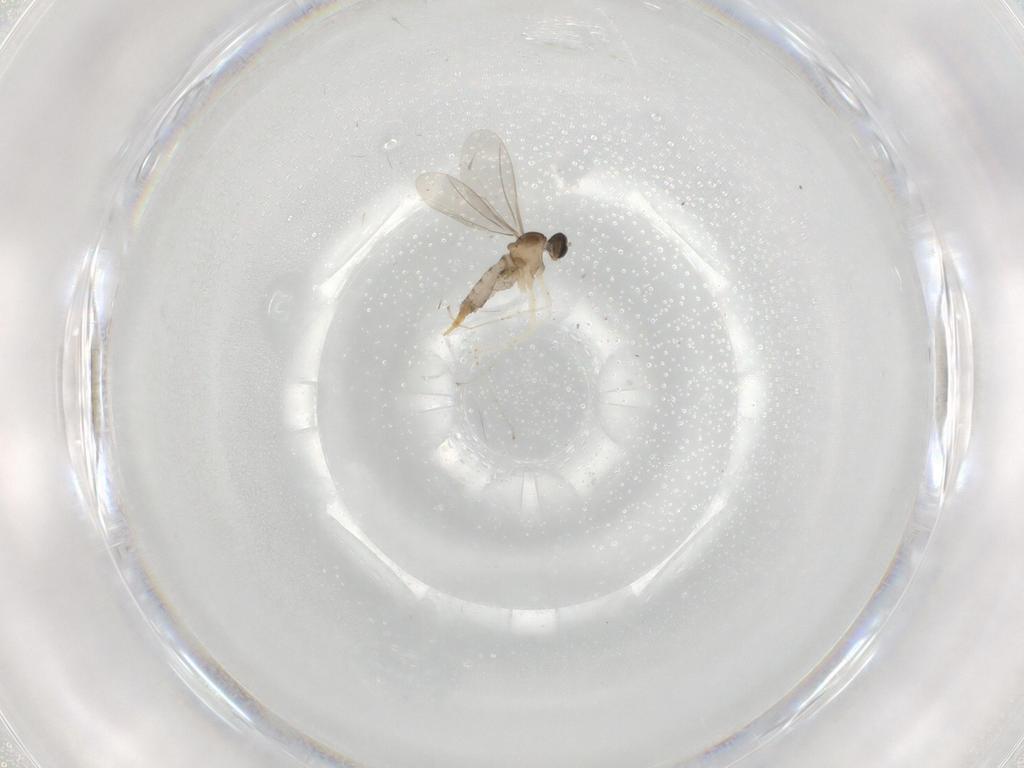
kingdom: Animalia
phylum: Arthropoda
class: Insecta
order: Diptera
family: Cecidomyiidae
